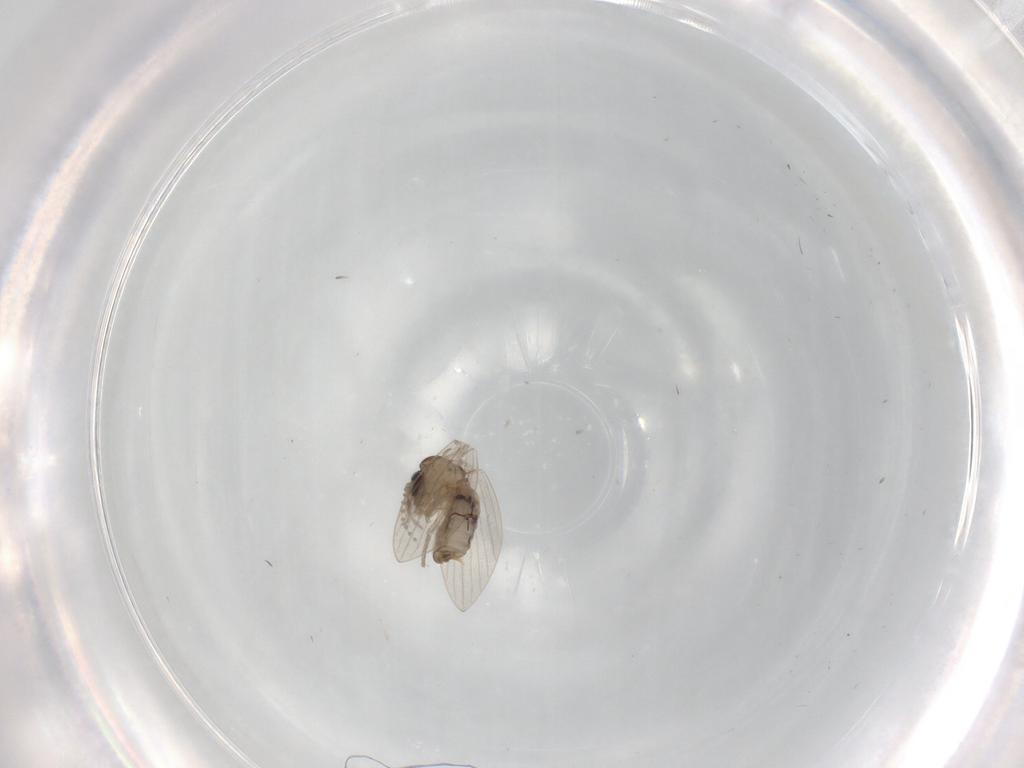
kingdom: Animalia
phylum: Arthropoda
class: Insecta
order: Diptera
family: Psychodidae
